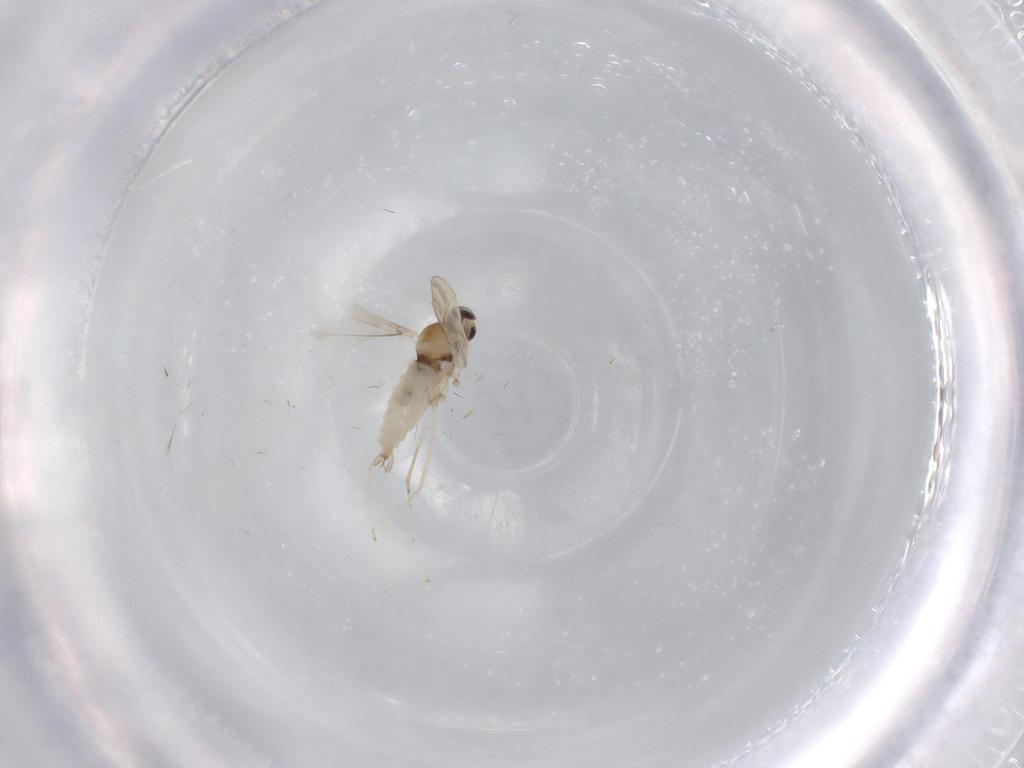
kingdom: Animalia
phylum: Arthropoda
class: Insecta
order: Diptera
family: Cecidomyiidae
